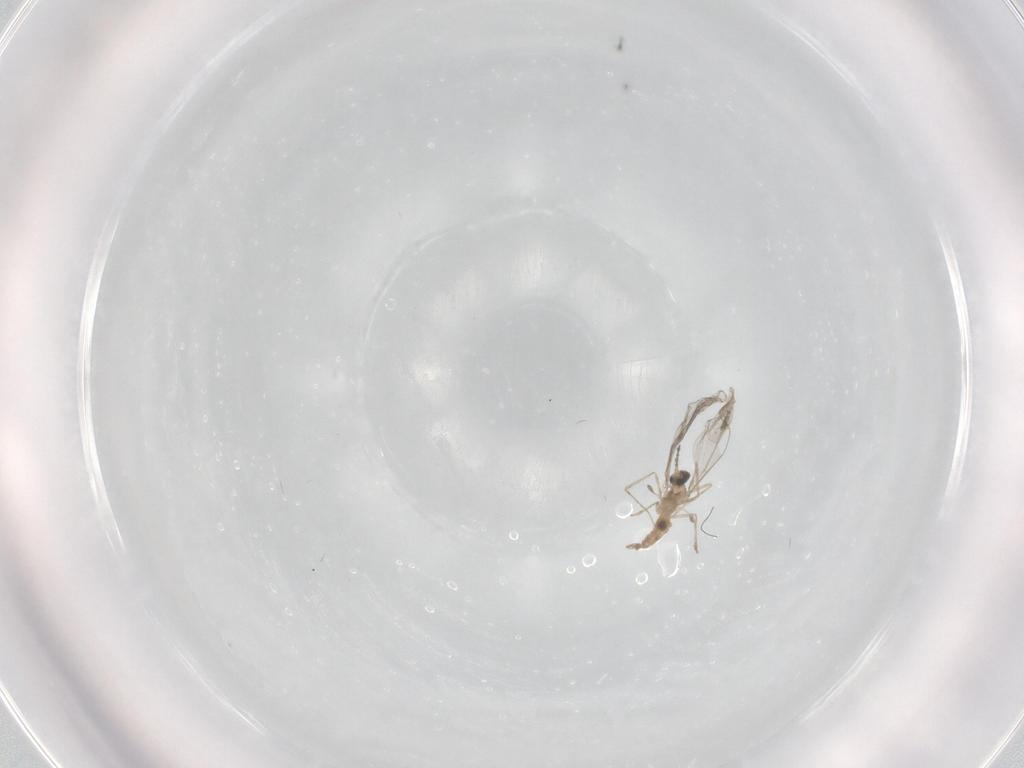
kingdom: Animalia
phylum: Arthropoda
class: Insecta
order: Diptera
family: Cecidomyiidae
